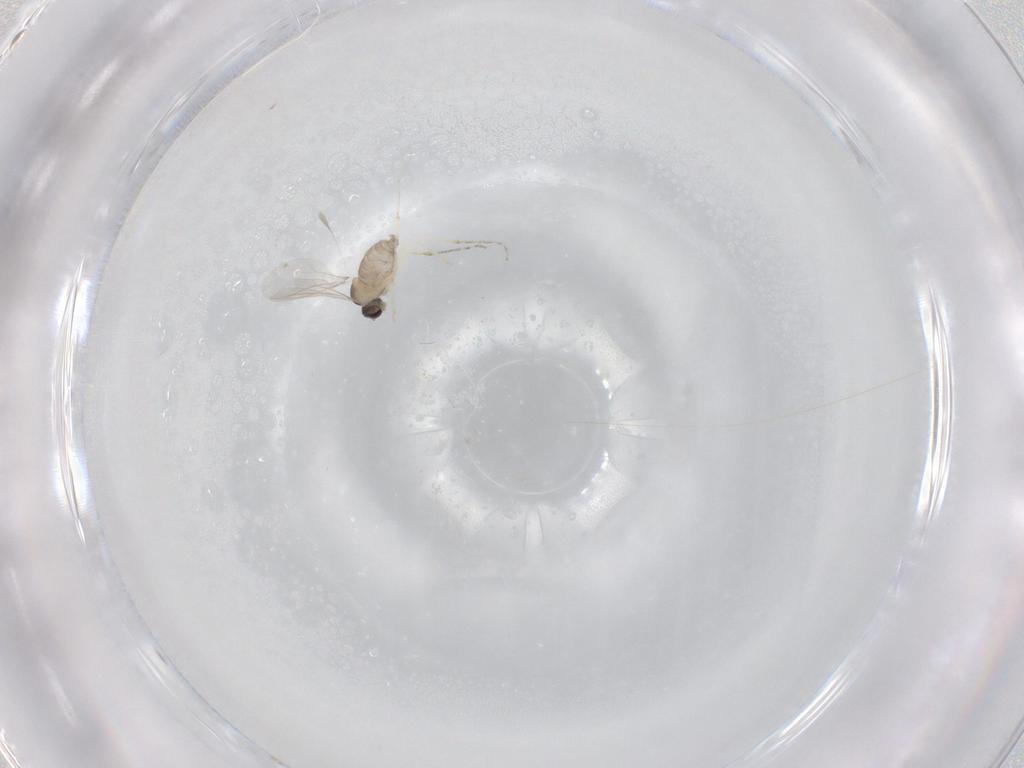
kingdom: Animalia
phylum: Arthropoda
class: Insecta
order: Diptera
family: Cecidomyiidae
